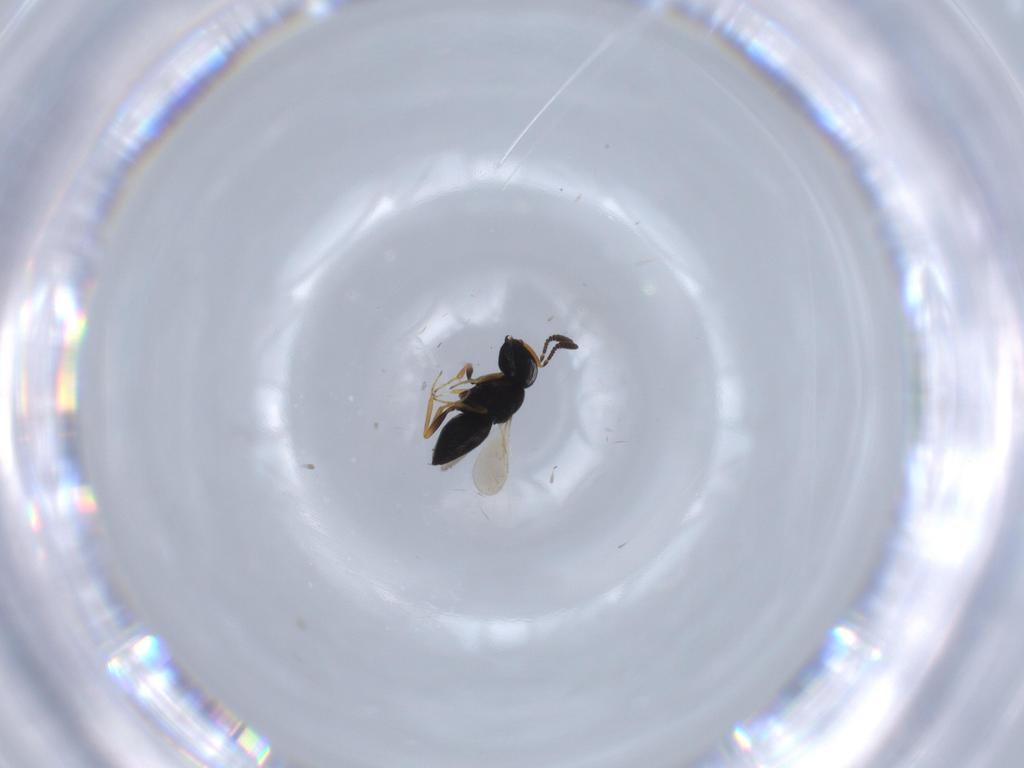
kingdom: Animalia
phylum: Arthropoda
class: Insecta
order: Hymenoptera
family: Scelionidae
